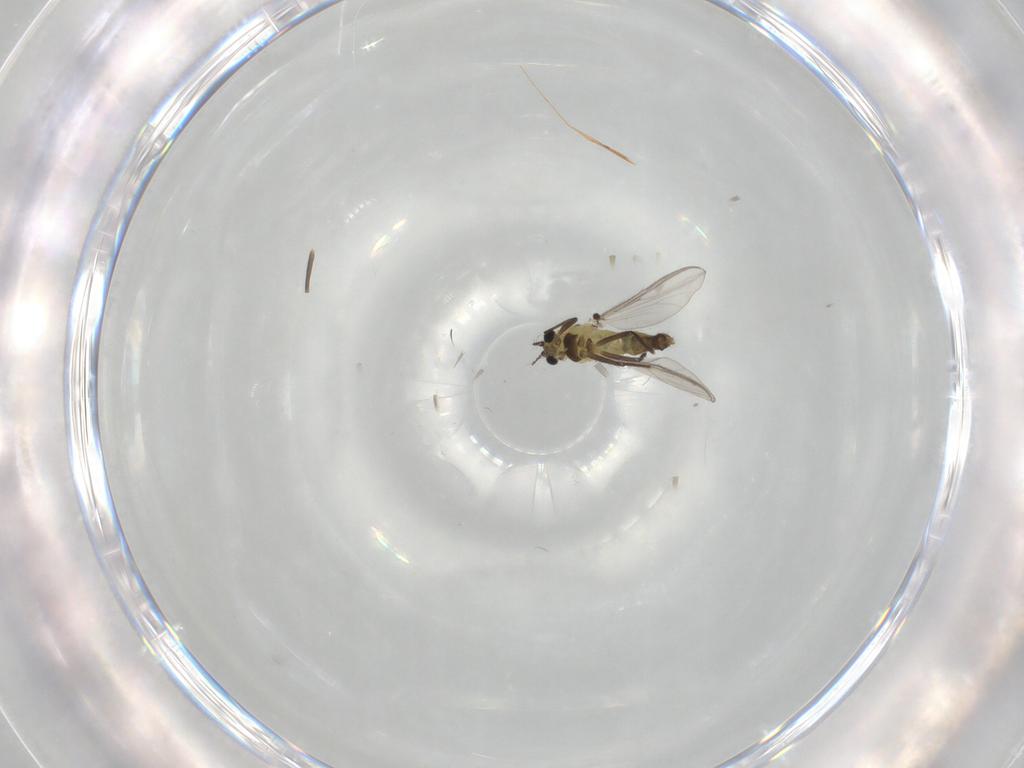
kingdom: Animalia
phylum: Arthropoda
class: Insecta
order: Diptera
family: Chironomidae
